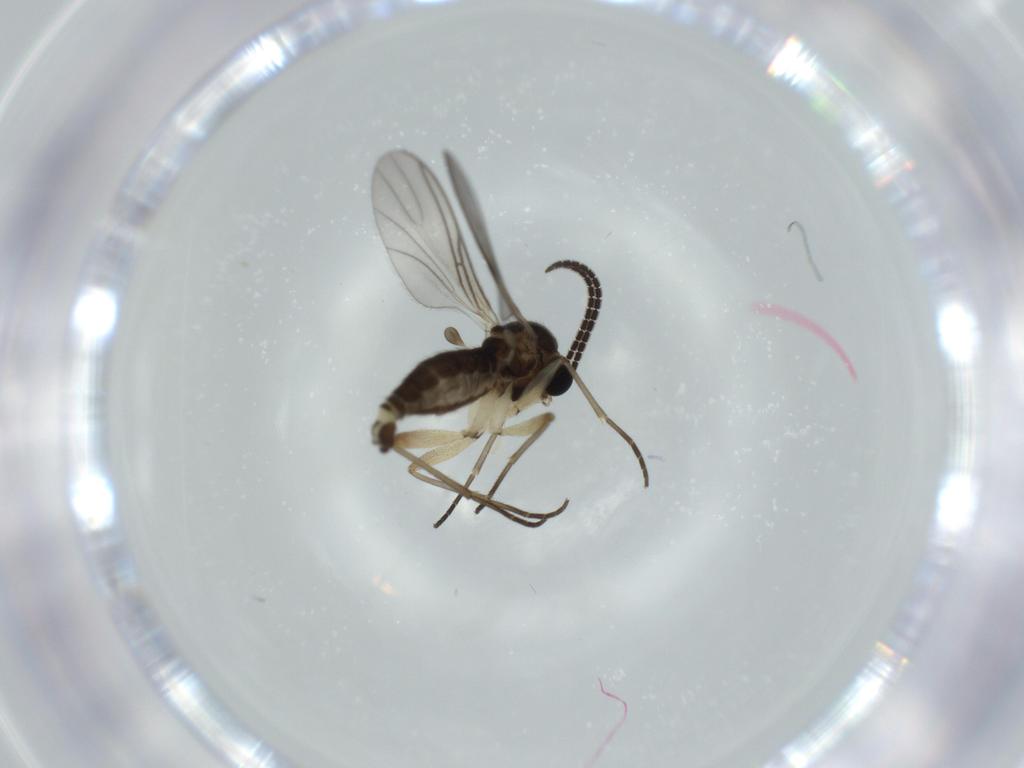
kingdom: Animalia
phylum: Arthropoda
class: Insecta
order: Diptera
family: Sciaridae
